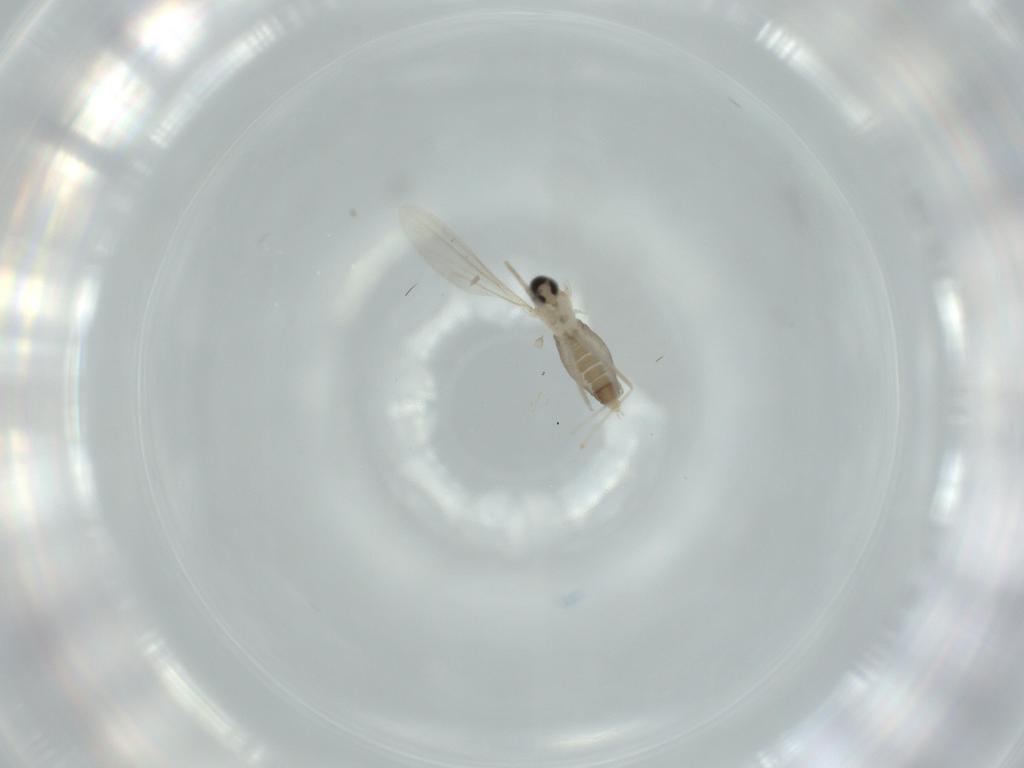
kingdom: Animalia
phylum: Arthropoda
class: Insecta
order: Diptera
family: Cecidomyiidae
